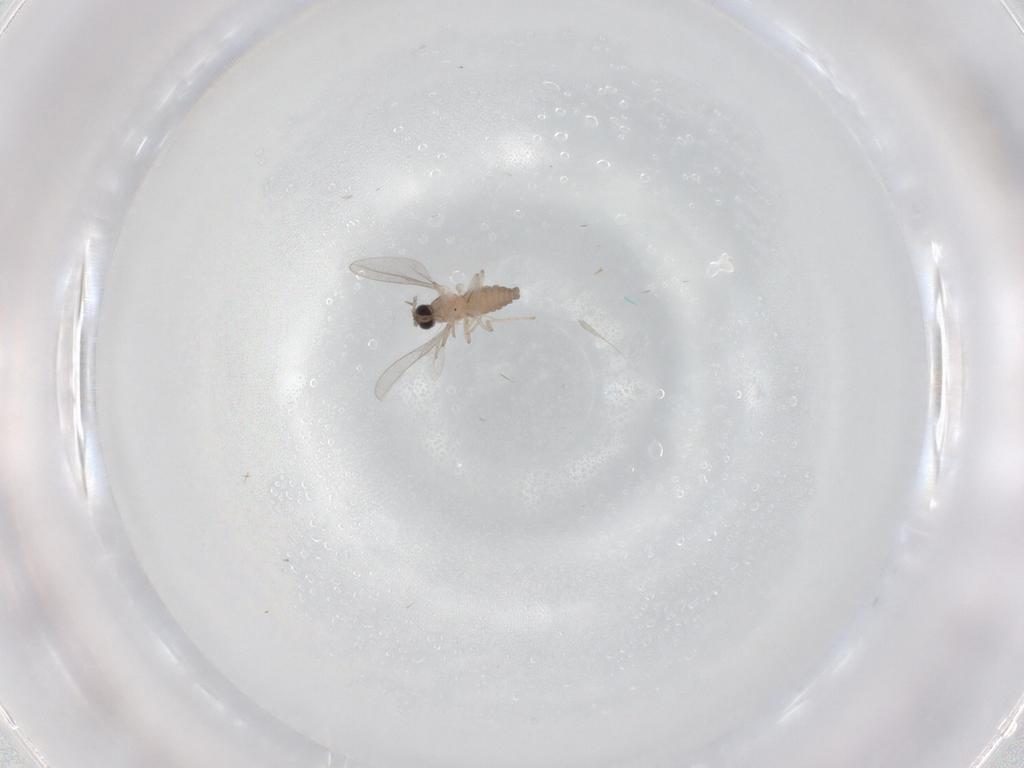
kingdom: Animalia
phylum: Arthropoda
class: Insecta
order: Diptera
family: Cecidomyiidae
